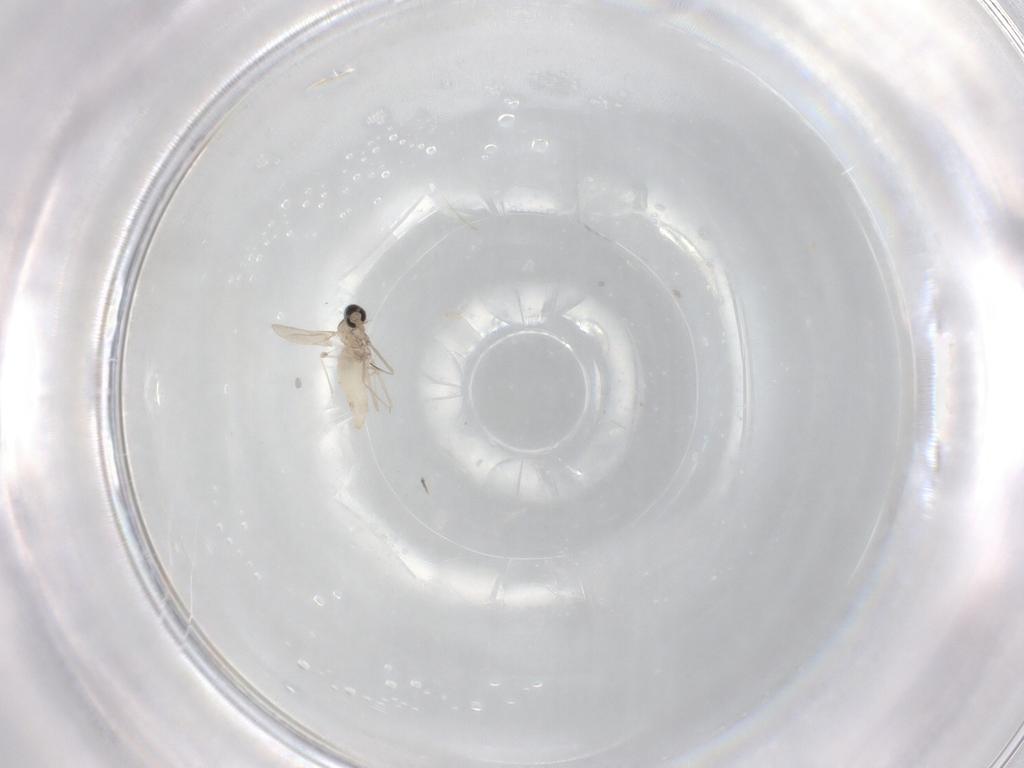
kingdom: Animalia
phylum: Arthropoda
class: Insecta
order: Diptera
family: Cecidomyiidae
